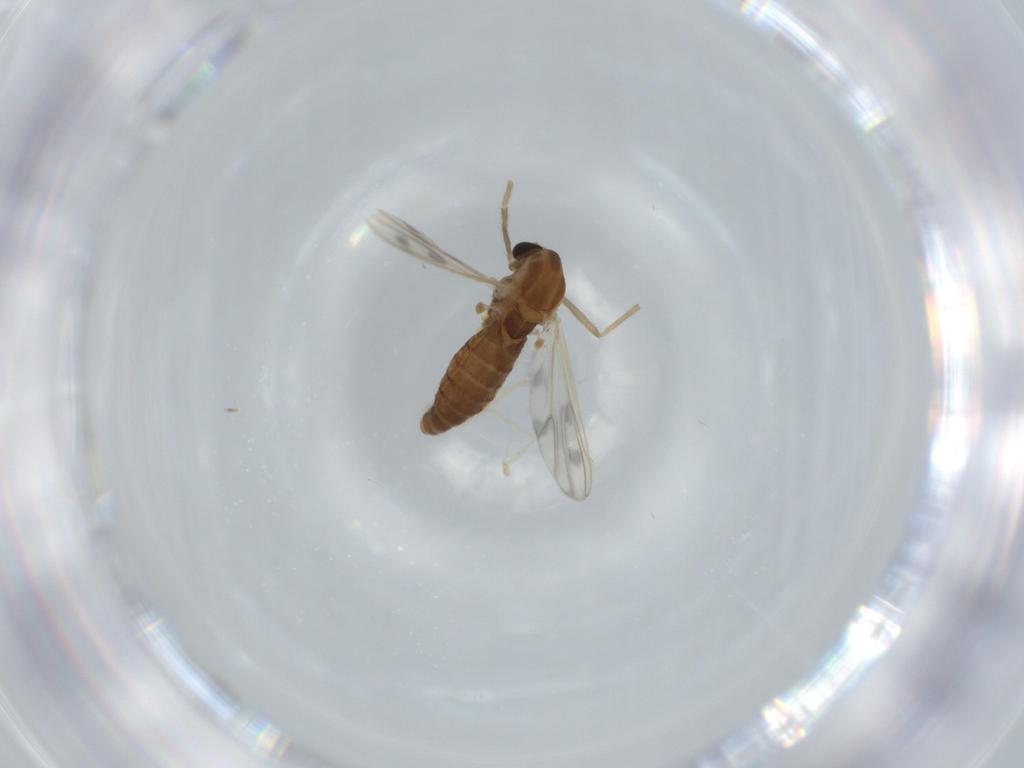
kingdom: Animalia
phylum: Arthropoda
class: Insecta
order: Diptera
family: Chironomidae
